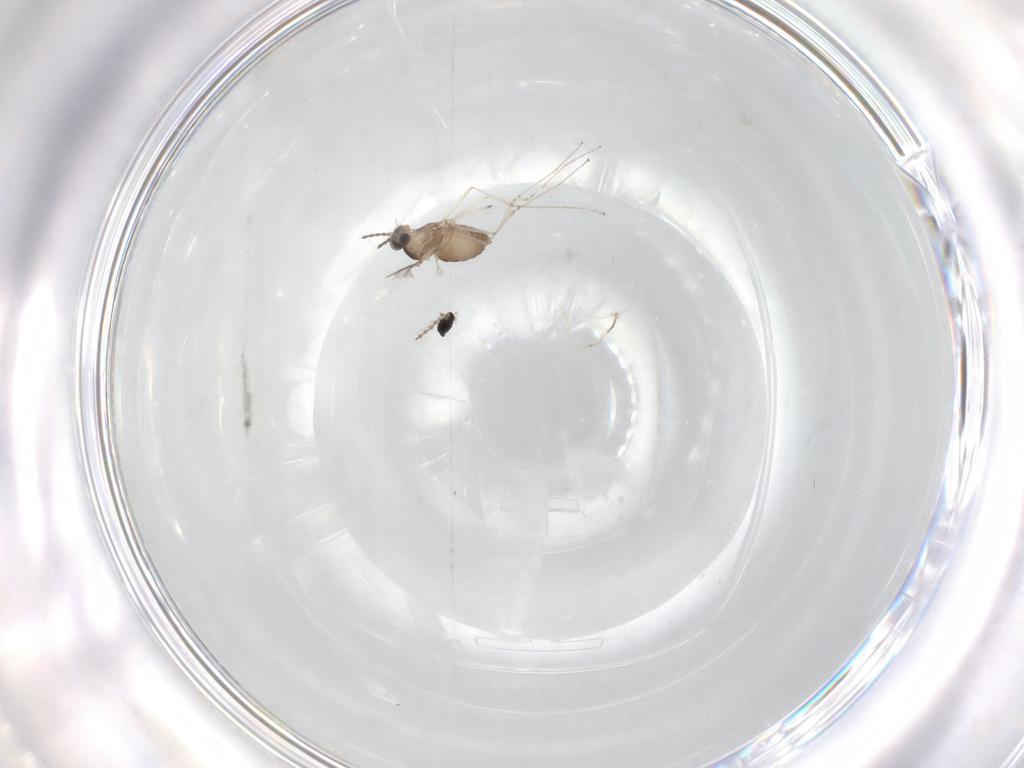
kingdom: Animalia
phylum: Arthropoda
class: Insecta
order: Diptera
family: Cecidomyiidae
